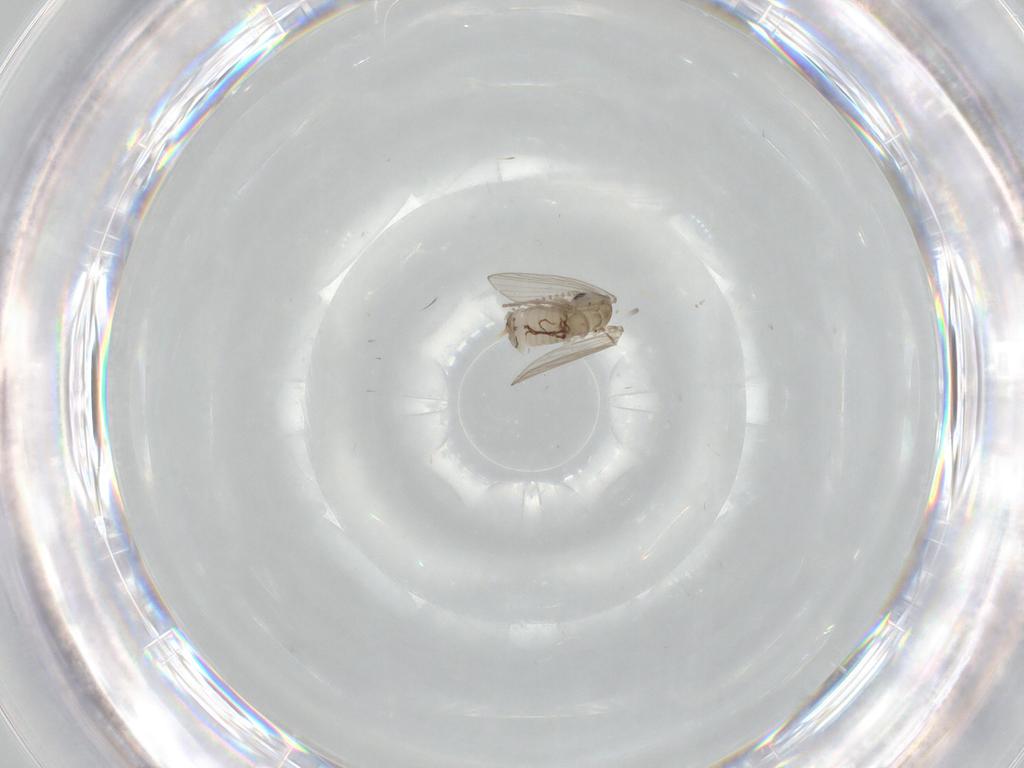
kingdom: Animalia
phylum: Arthropoda
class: Insecta
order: Diptera
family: Psychodidae
